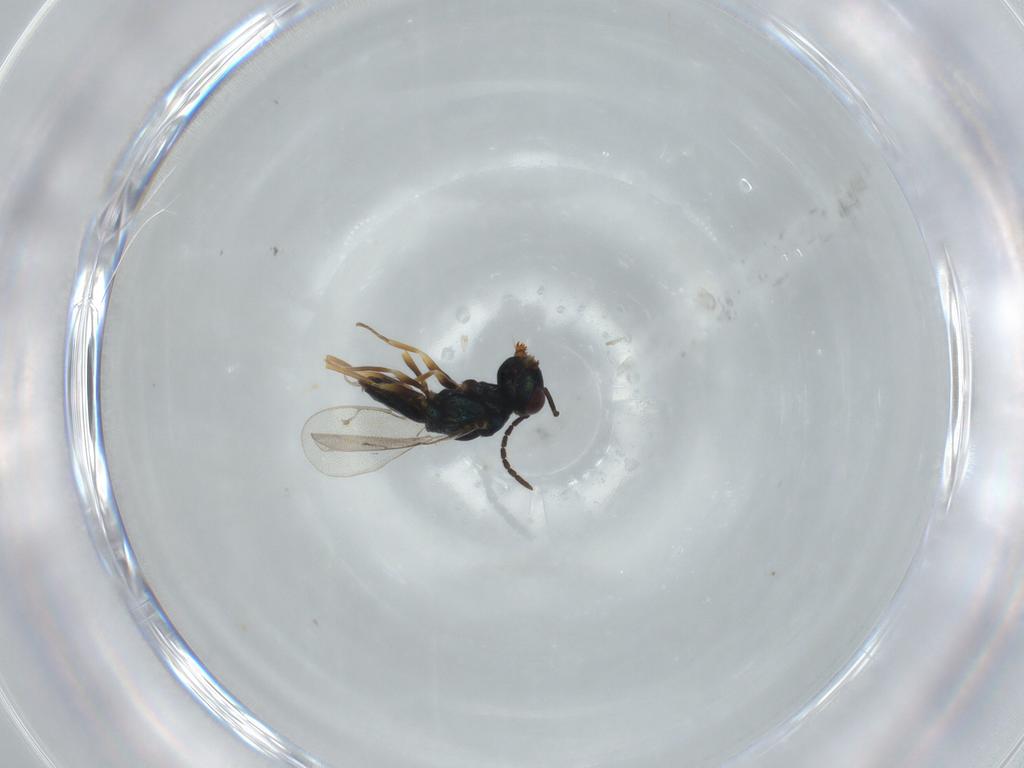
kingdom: Animalia
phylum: Arthropoda
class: Insecta
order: Hymenoptera
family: Pteromalidae
